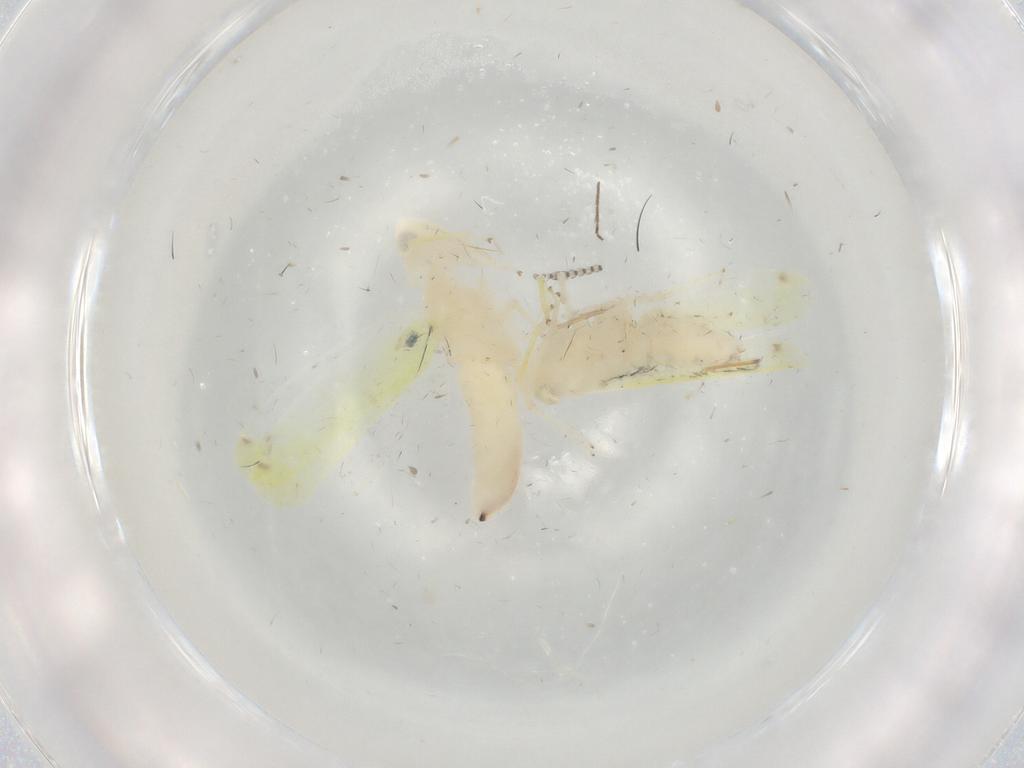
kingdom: Animalia
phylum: Arthropoda
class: Insecta
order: Hemiptera
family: Cicadellidae
